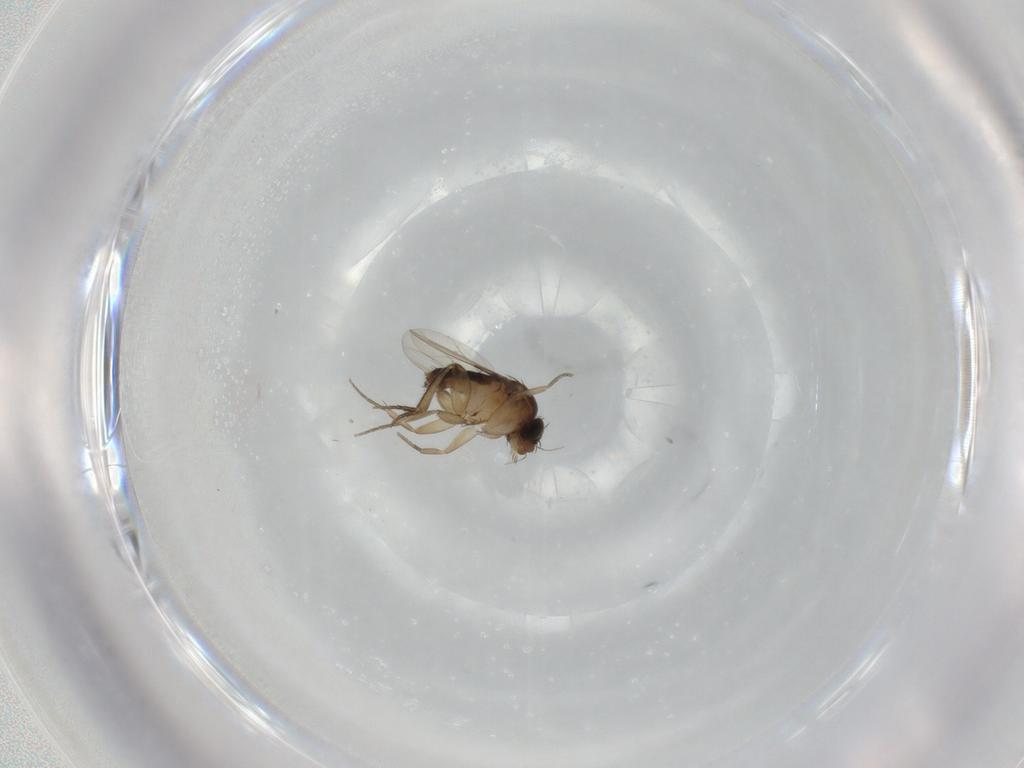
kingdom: Animalia
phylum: Arthropoda
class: Insecta
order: Diptera
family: Phoridae
